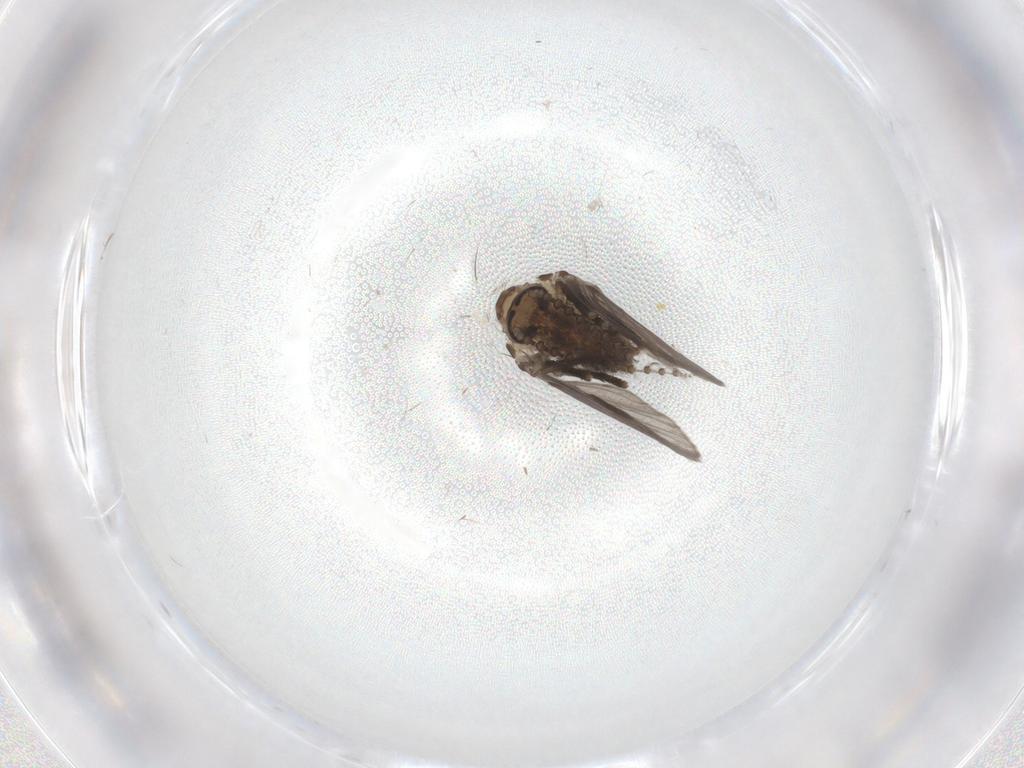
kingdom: Animalia
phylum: Arthropoda
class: Insecta
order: Diptera
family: Psychodidae
